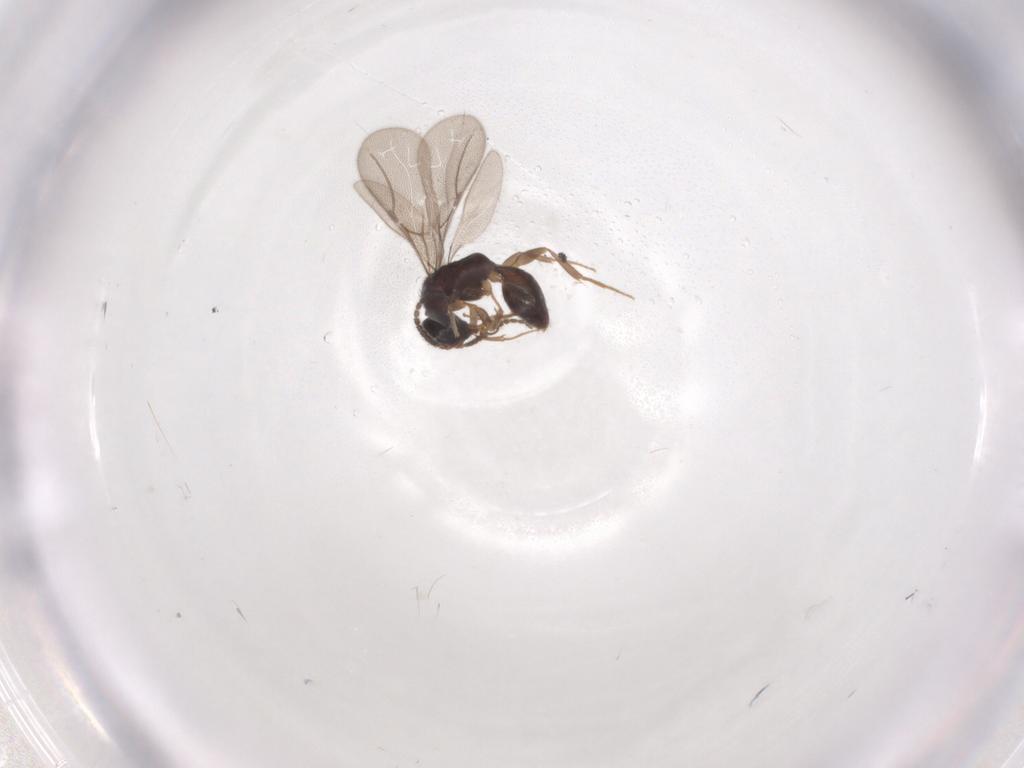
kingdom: Animalia
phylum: Arthropoda
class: Insecta
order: Hymenoptera
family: Bethylidae
